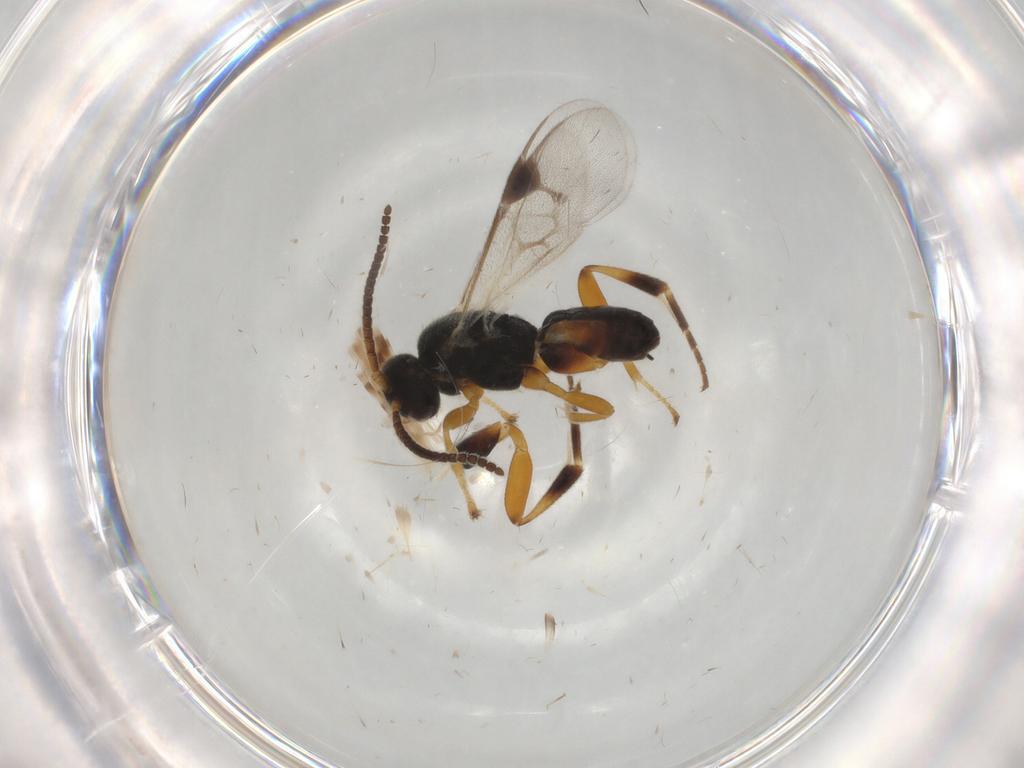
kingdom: Animalia
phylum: Arthropoda
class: Insecta
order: Hymenoptera
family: Braconidae
